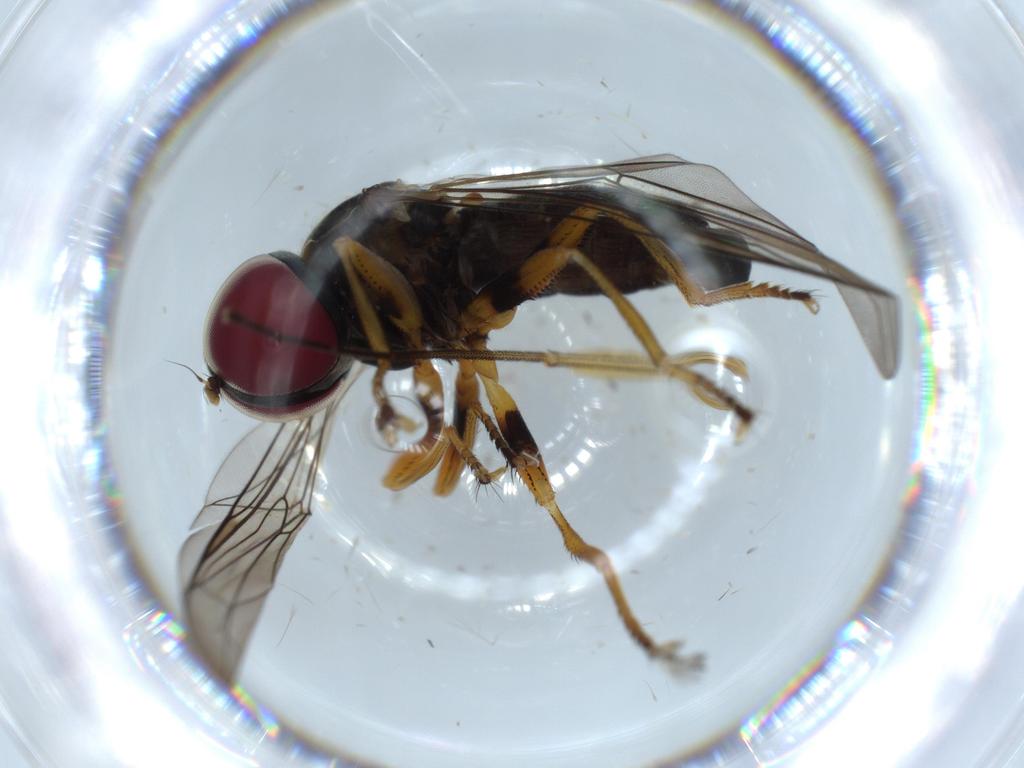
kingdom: Animalia
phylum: Arthropoda
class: Insecta
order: Diptera
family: Pipunculidae
